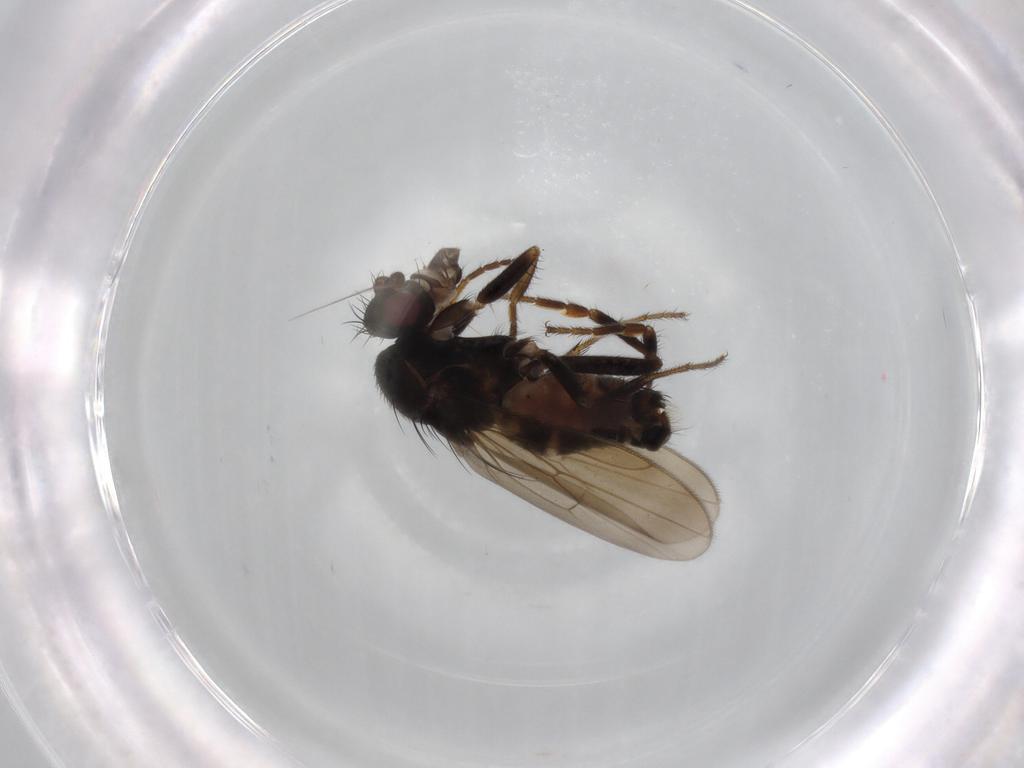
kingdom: Animalia
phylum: Arthropoda
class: Insecta
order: Diptera
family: Sphaeroceridae
